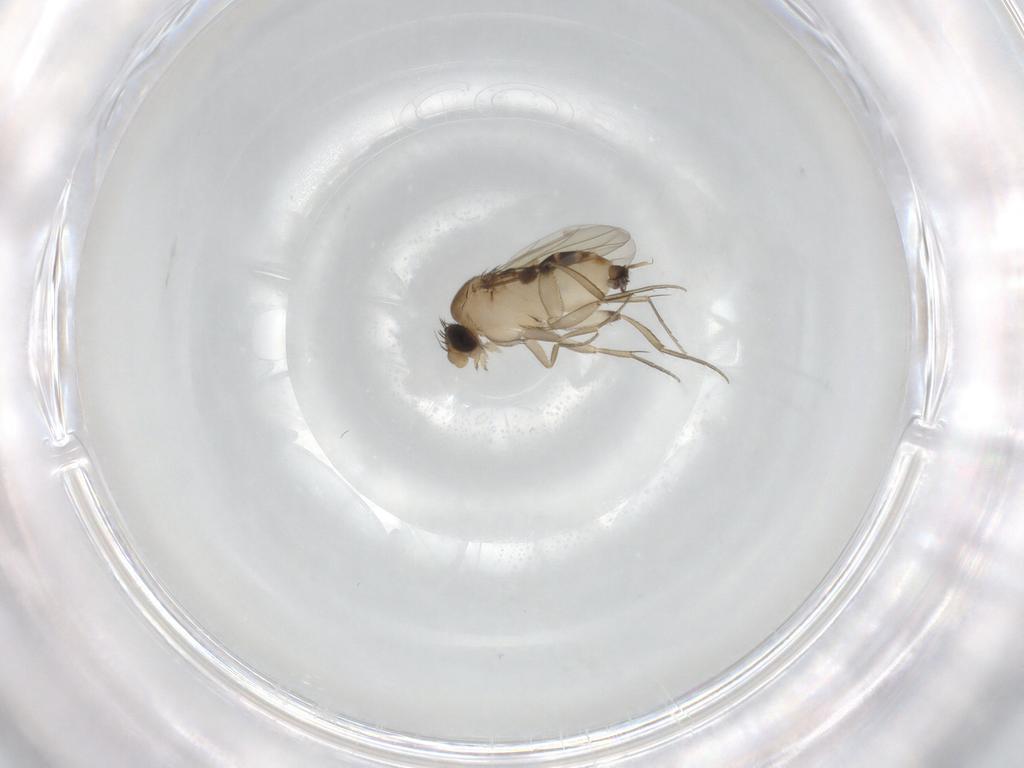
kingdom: Animalia
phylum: Arthropoda
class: Insecta
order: Diptera
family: Phoridae
